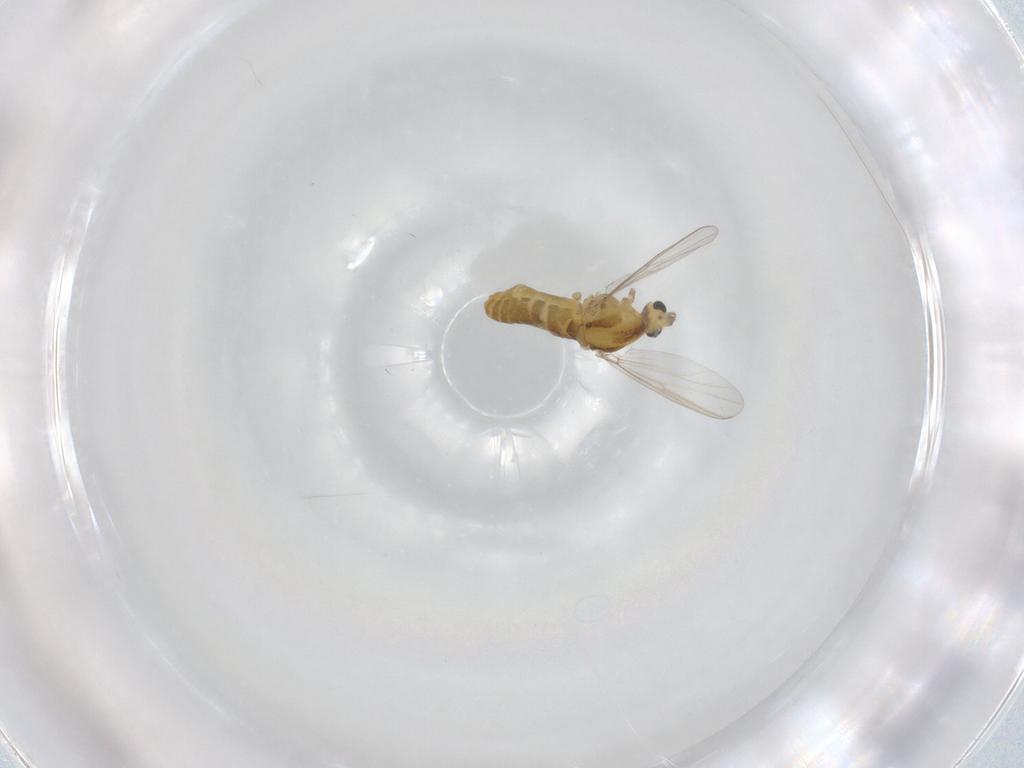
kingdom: Animalia
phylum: Arthropoda
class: Insecta
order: Diptera
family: Chironomidae
